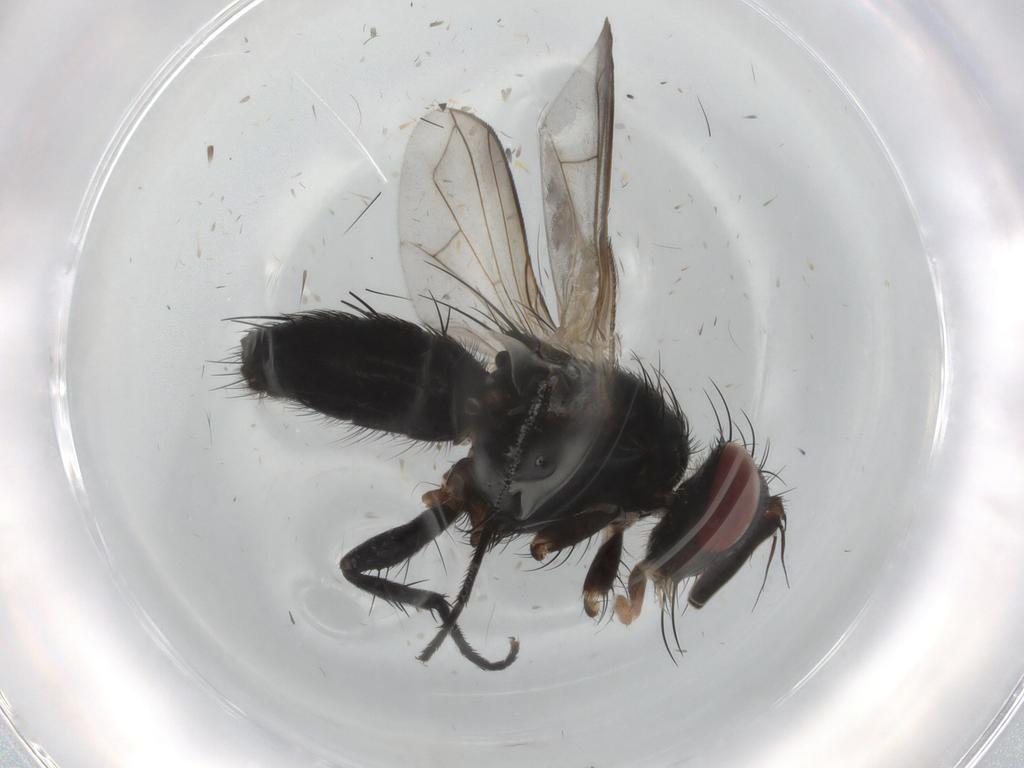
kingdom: Animalia
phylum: Arthropoda
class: Insecta
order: Diptera
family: Tachinidae
